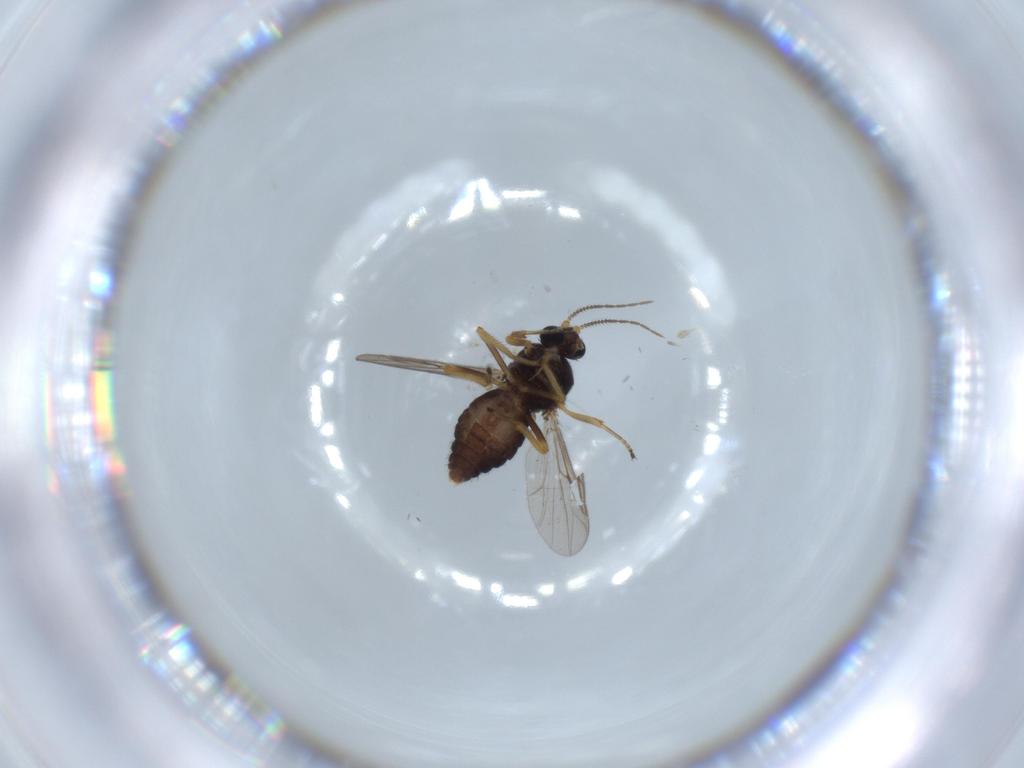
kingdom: Animalia
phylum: Arthropoda
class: Insecta
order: Diptera
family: Ceratopogonidae
